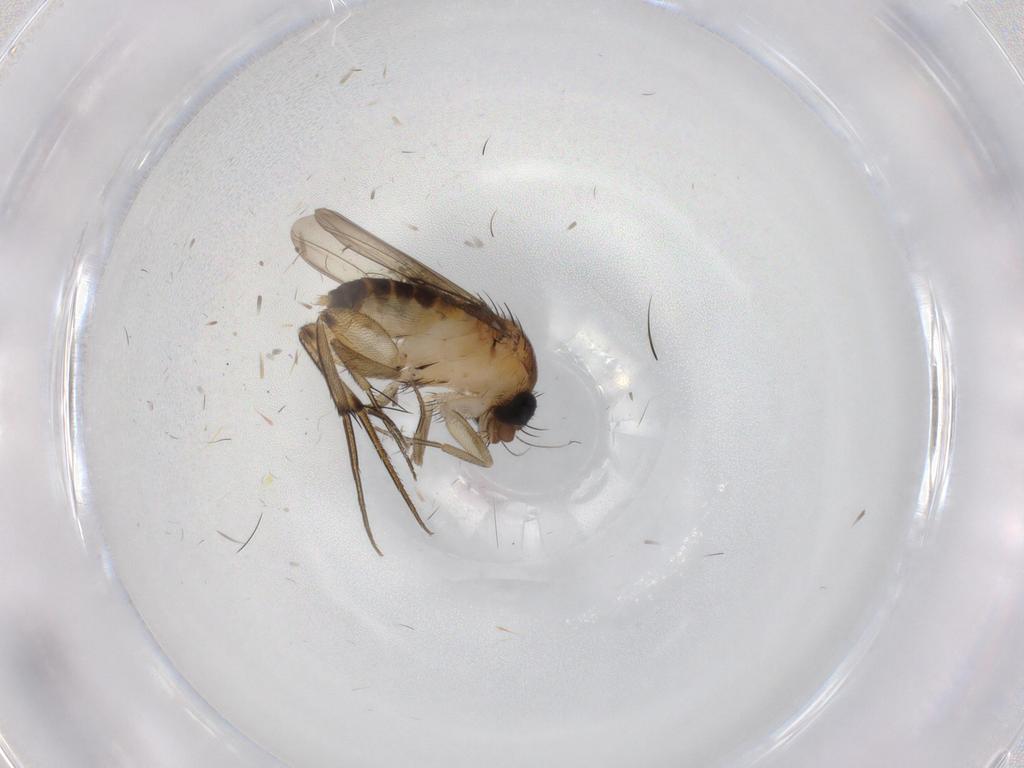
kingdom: Animalia
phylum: Arthropoda
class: Insecta
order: Diptera
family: Phoridae
